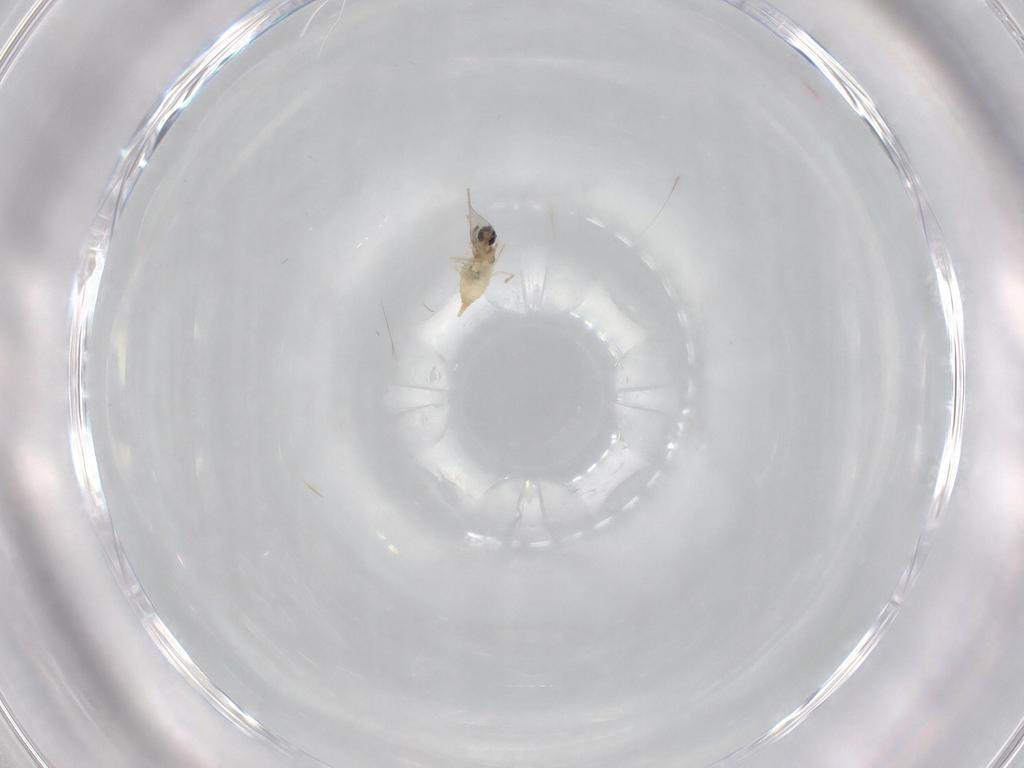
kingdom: Animalia
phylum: Arthropoda
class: Insecta
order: Diptera
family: Cecidomyiidae
